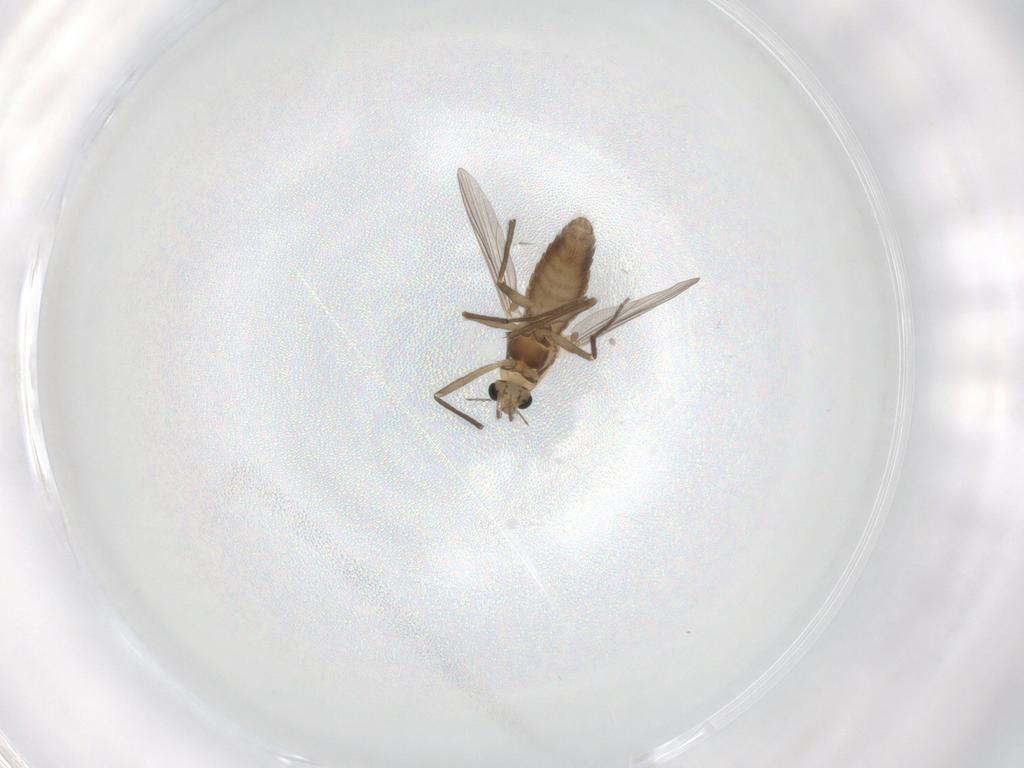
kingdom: Animalia
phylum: Arthropoda
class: Insecta
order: Diptera
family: Chironomidae
